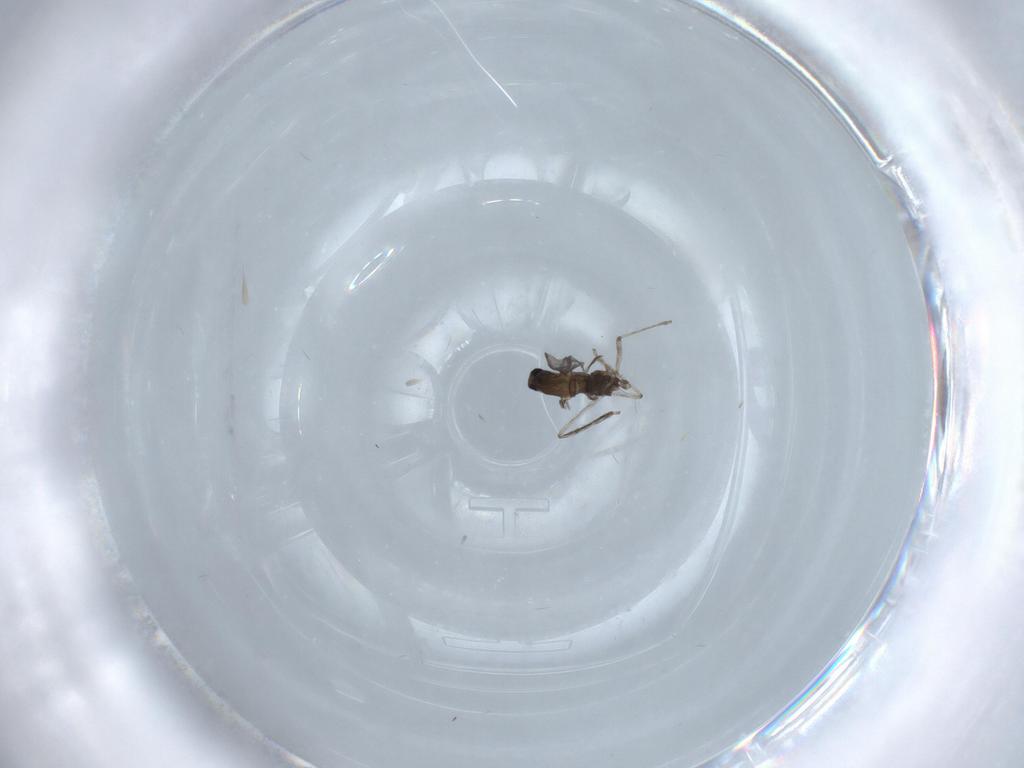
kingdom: Animalia
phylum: Arthropoda
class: Insecta
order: Diptera
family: Cecidomyiidae
